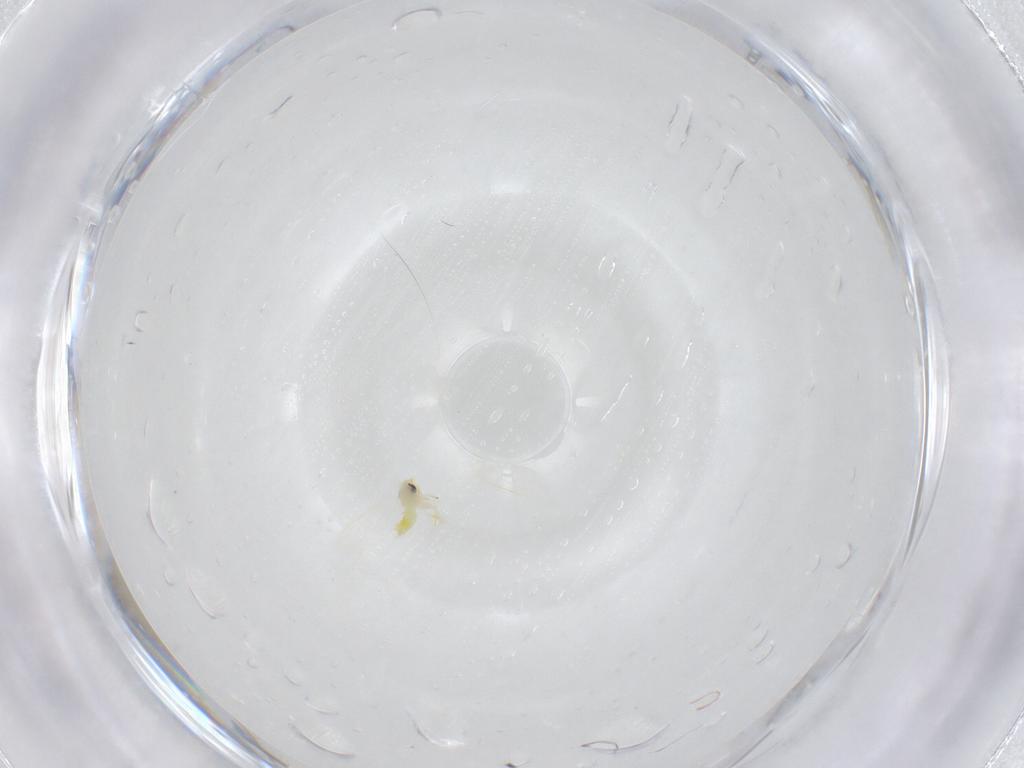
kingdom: Animalia
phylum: Arthropoda
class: Insecta
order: Hemiptera
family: Aleyrodidae
